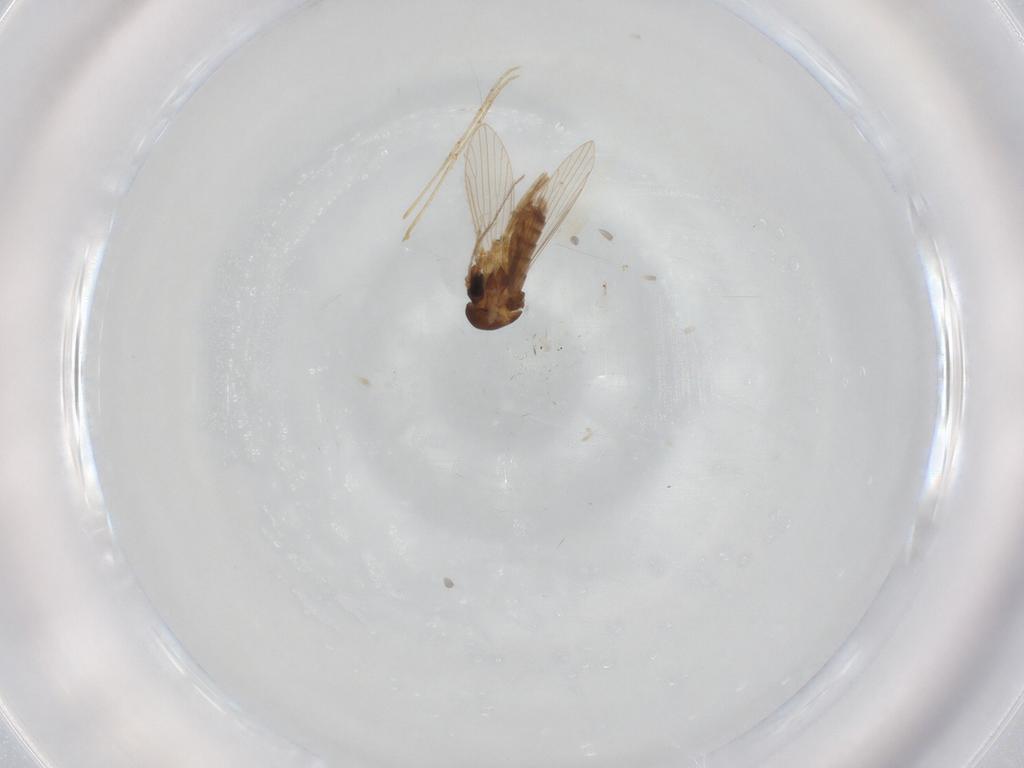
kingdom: Animalia
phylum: Arthropoda
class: Insecta
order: Diptera
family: Psychodidae
